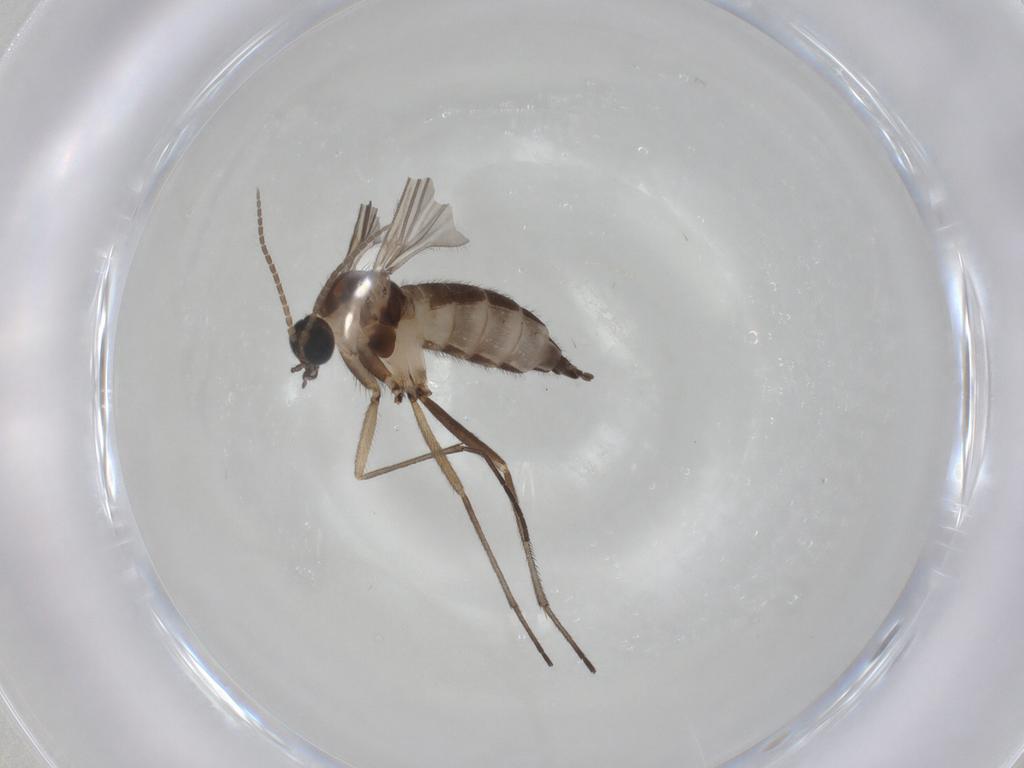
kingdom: Animalia
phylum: Arthropoda
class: Insecta
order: Diptera
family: Sciaridae
